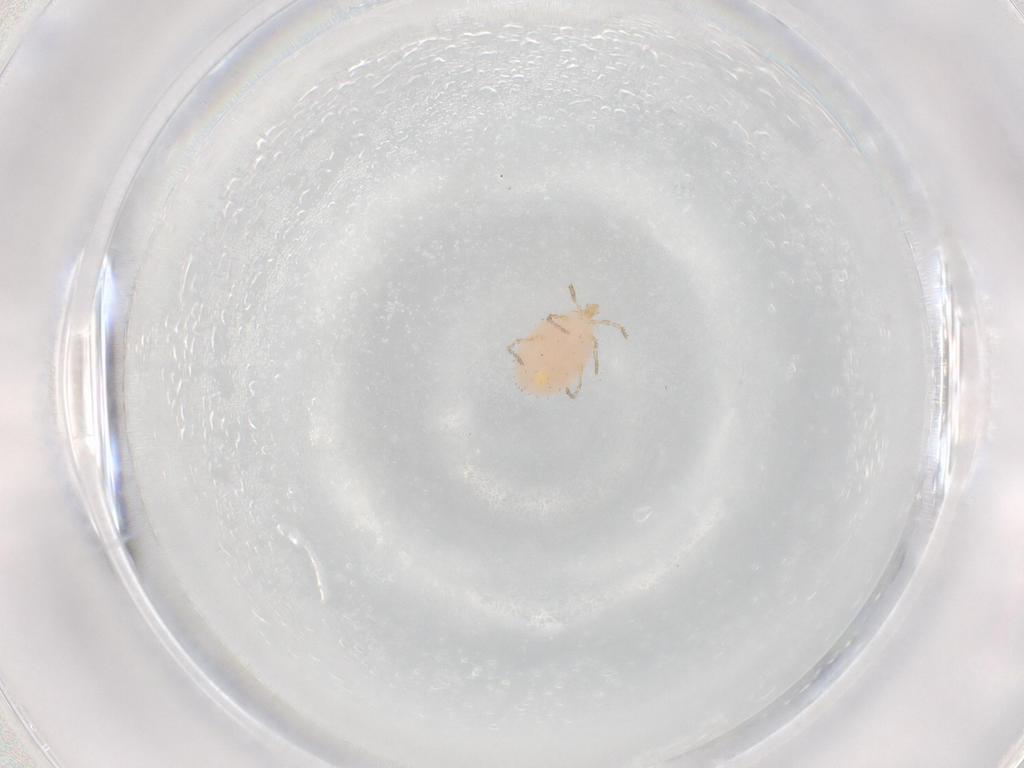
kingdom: Animalia
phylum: Arthropoda
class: Arachnida
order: Trombidiformes
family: Erythraeidae
